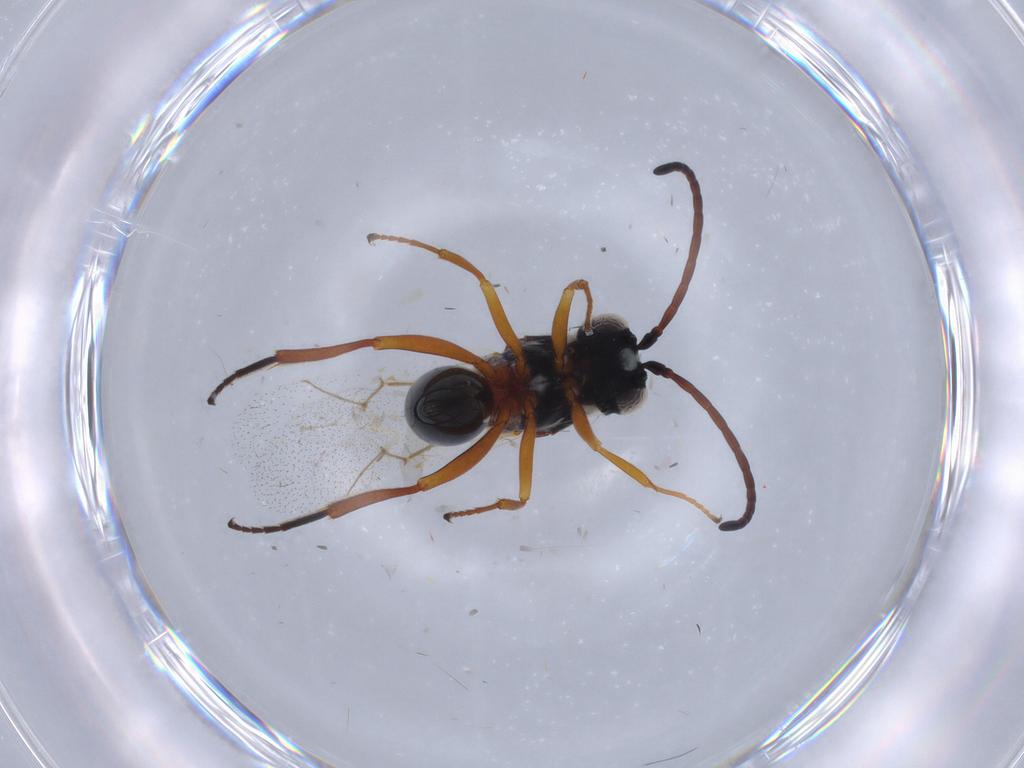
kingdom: Animalia
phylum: Arthropoda
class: Insecta
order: Hymenoptera
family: Figitidae
